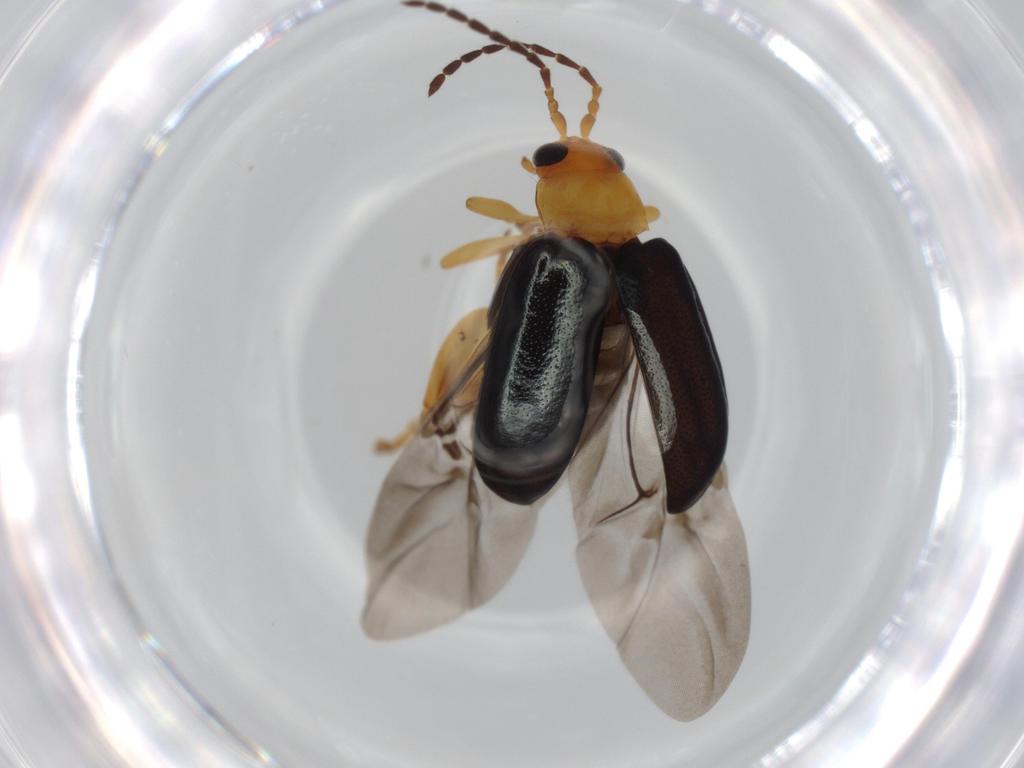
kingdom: Animalia
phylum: Arthropoda
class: Insecta
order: Coleoptera
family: Chrysomelidae
